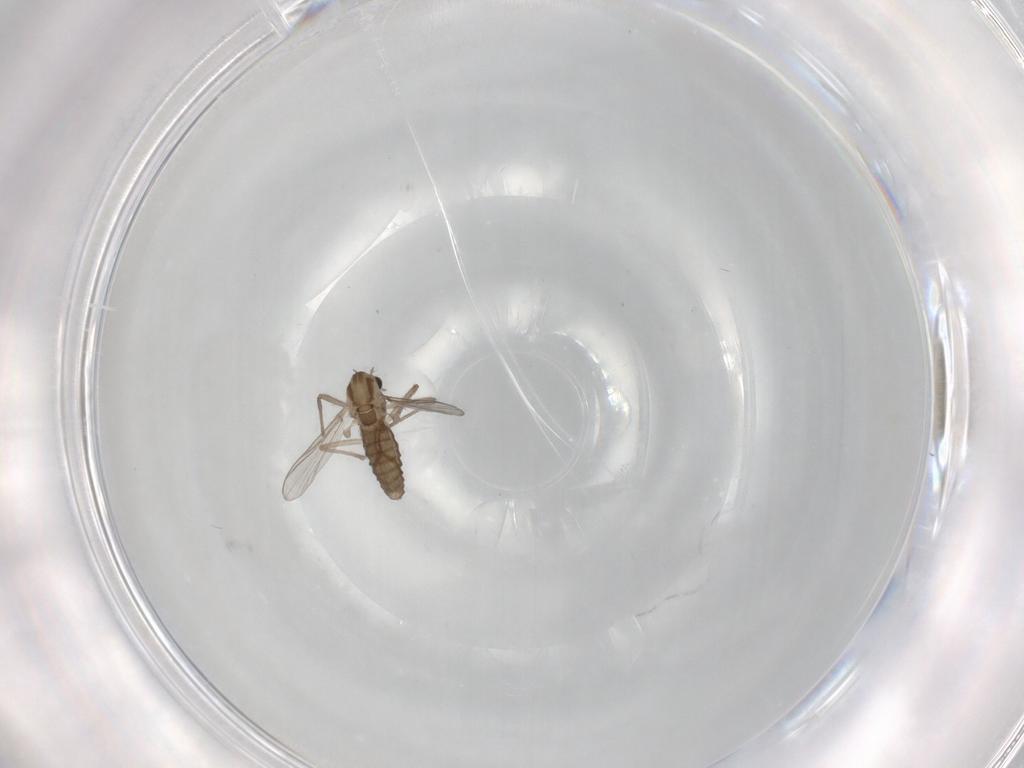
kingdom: Animalia
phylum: Arthropoda
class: Insecta
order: Diptera
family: Chironomidae
